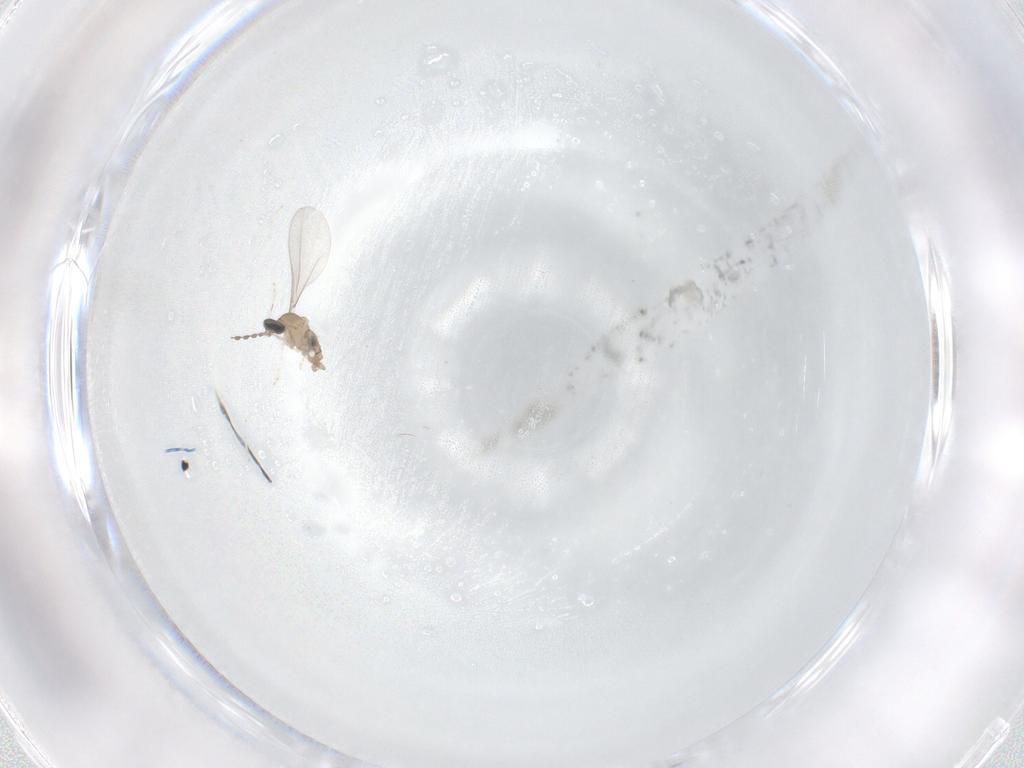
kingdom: Animalia
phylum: Arthropoda
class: Insecta
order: Diptera
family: Cecidomyiidae
